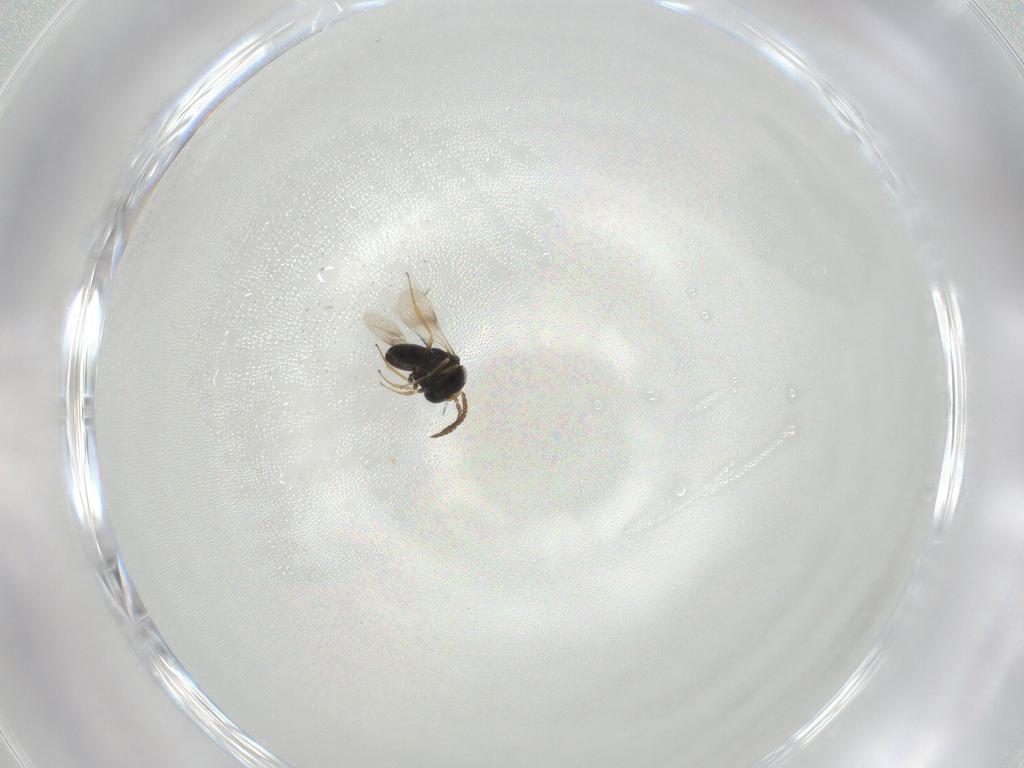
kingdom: Animalia
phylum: Arthropoda
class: Insecta
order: Hymenoptera
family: Scelionidae
